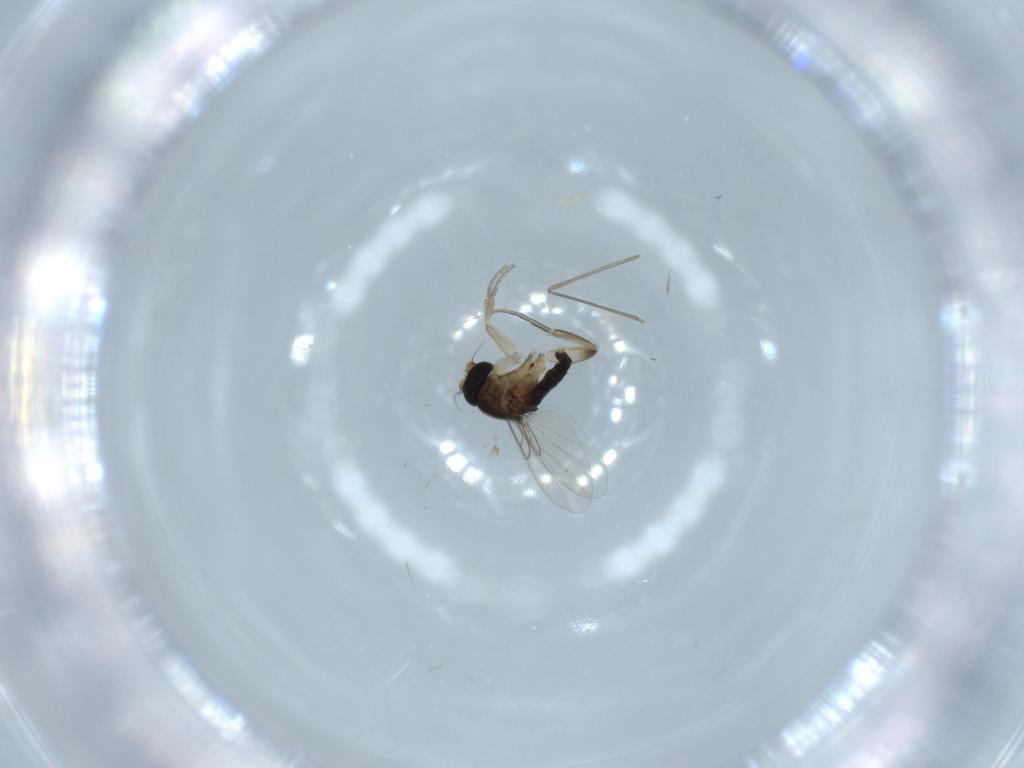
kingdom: Animalia
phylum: Arthropoda
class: Insecta
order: Diptera
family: Phoridae
